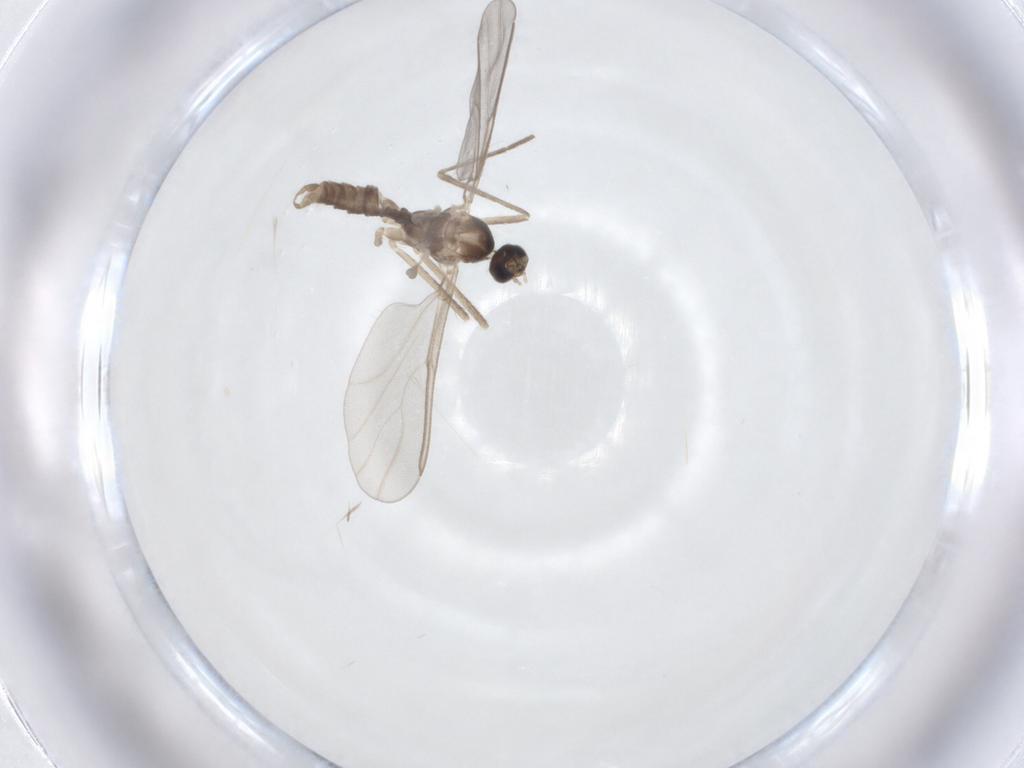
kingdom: Animalia
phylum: Arthropoda
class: Insecta
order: Diptera
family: Cecidomyiidae
